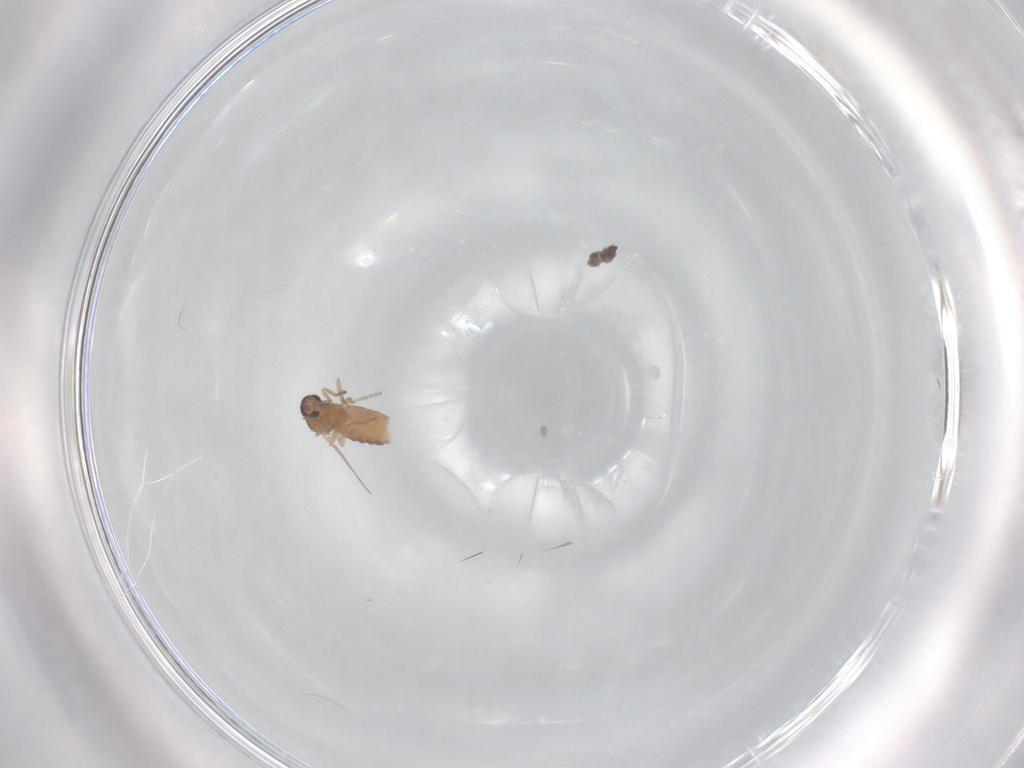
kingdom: Animalia
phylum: Arthropoda
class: Insecta
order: Diptera
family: Ceratopogonidae
